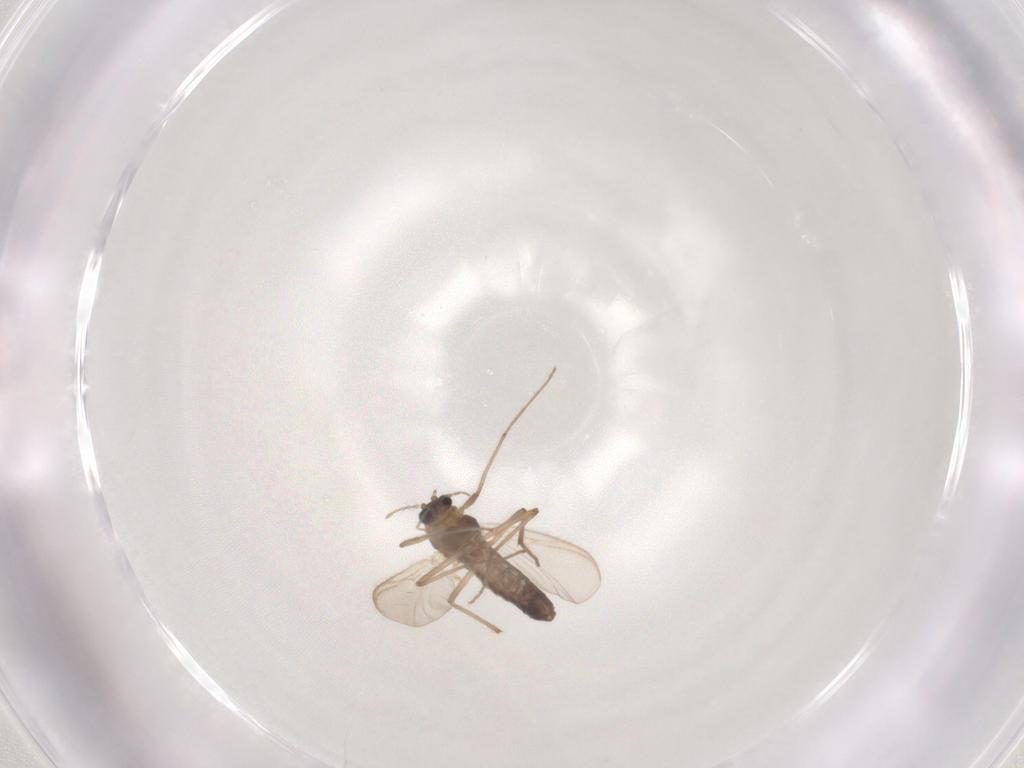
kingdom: Animalia
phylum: Arthropoda
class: Insecta
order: Diptera
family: Chironomidae
